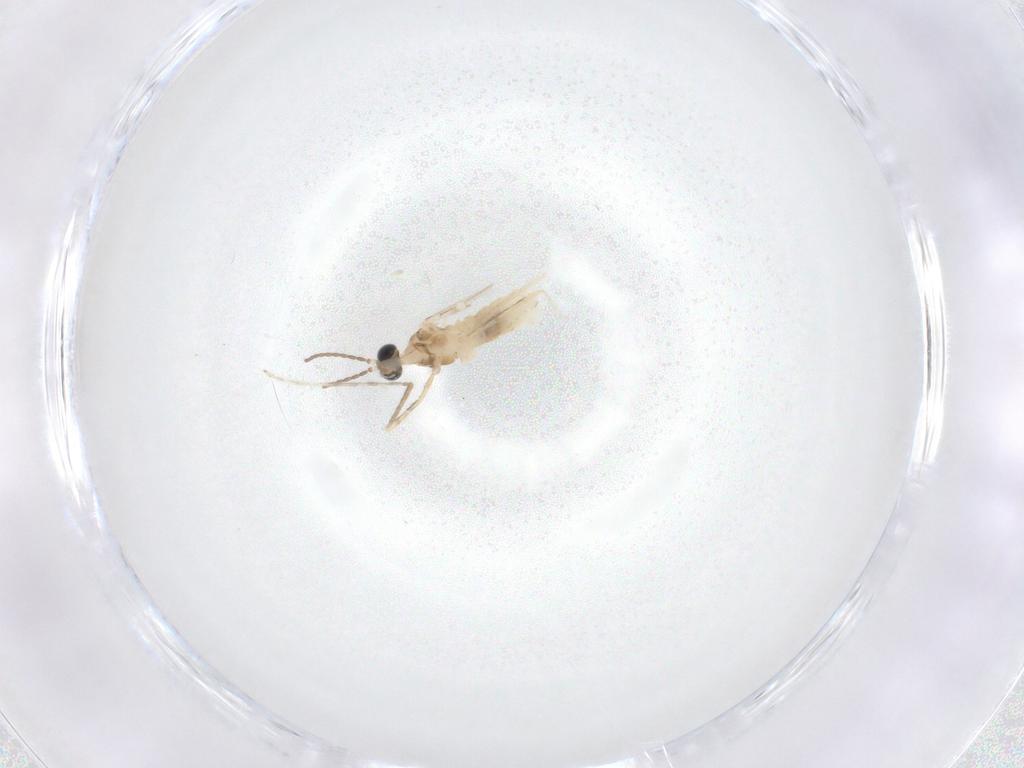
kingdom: Animalia
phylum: Arthropoda
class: Insecta
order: Diptera
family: Cecidomyiidae
